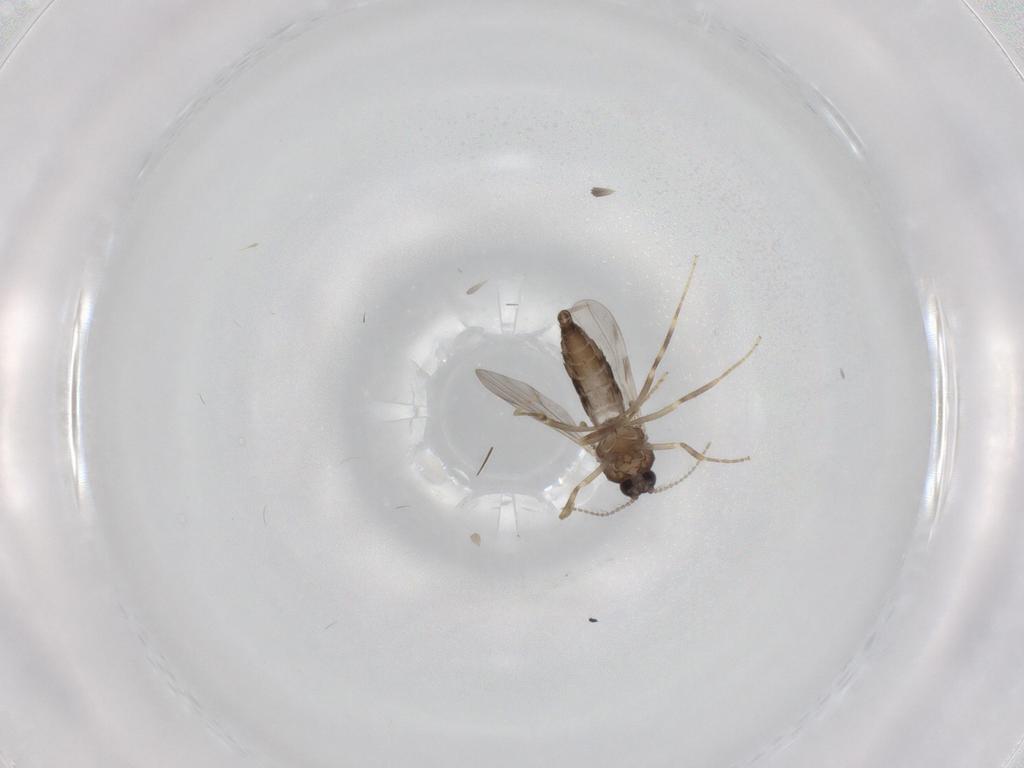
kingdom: Animalia
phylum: Arthropoda
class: Insecta
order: Diptera
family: Ceratopogonidae
